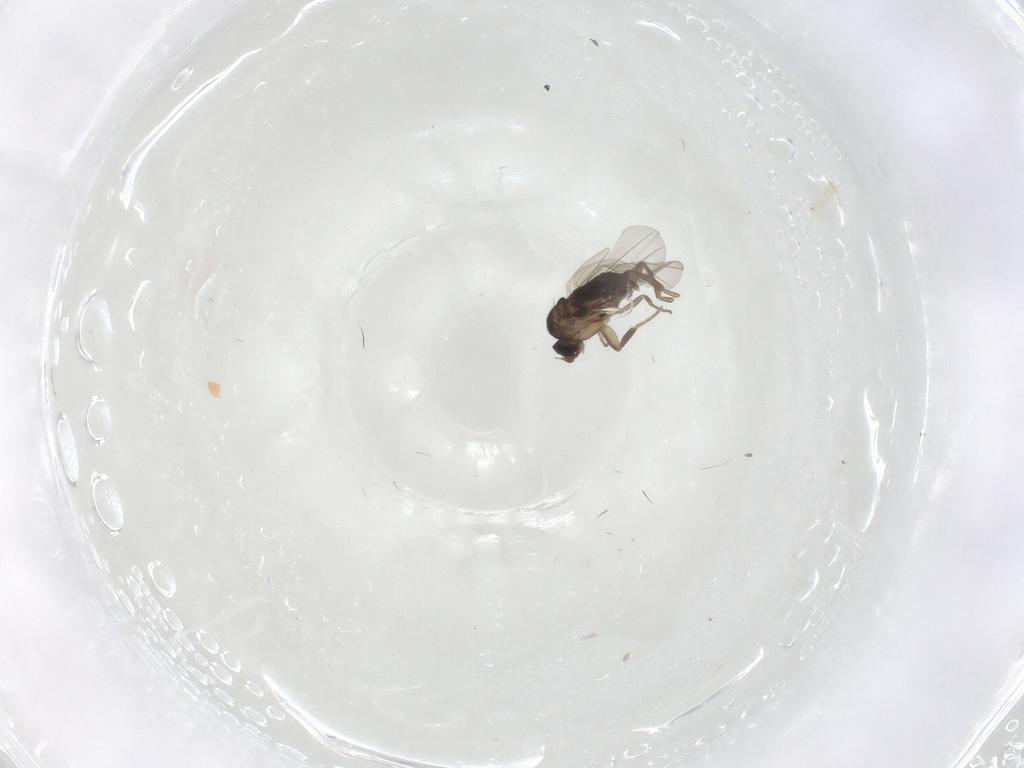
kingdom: Animalia
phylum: Arthropoda
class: Insecta
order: Diptera
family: Phoridae
